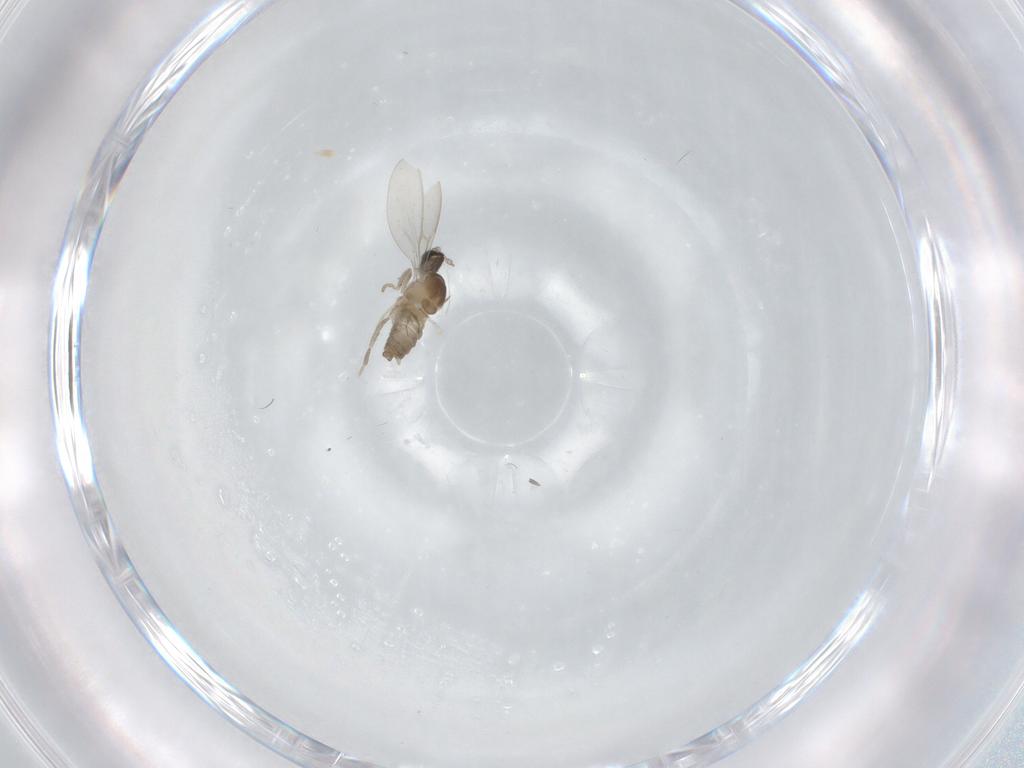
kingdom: Animalia
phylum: Arthropoda
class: Insecta
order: Diptera
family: Cecidomyiidae
